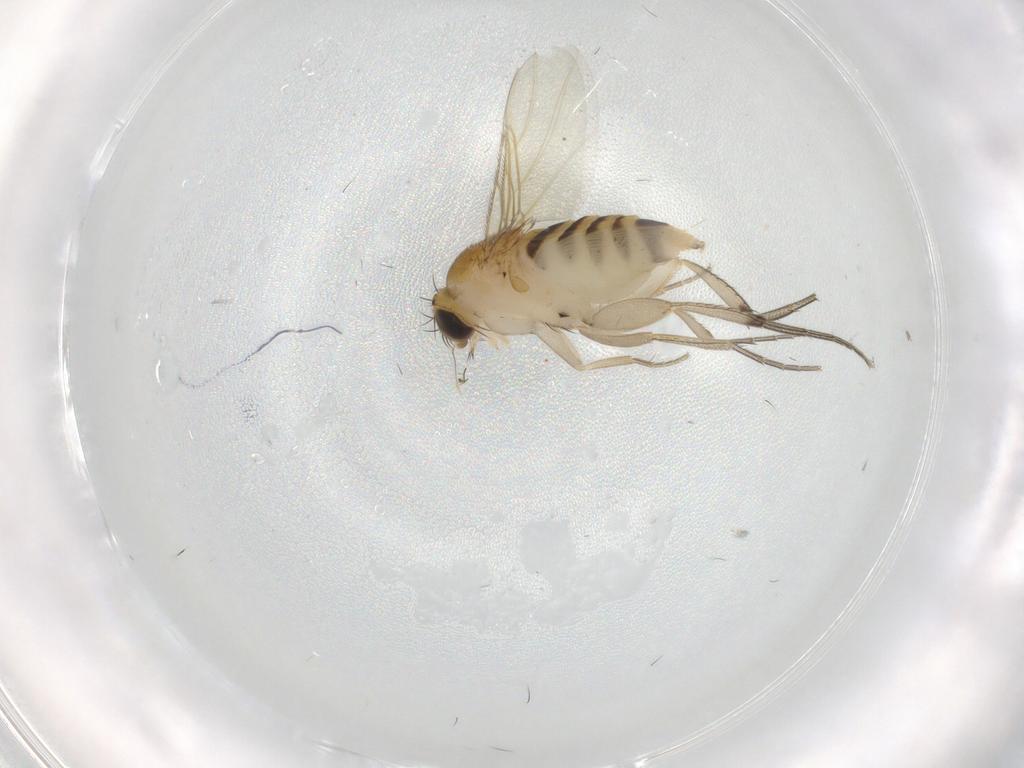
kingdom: Animalia
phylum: Arthropoda
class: Insecta
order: Diptera
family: Phoridae
